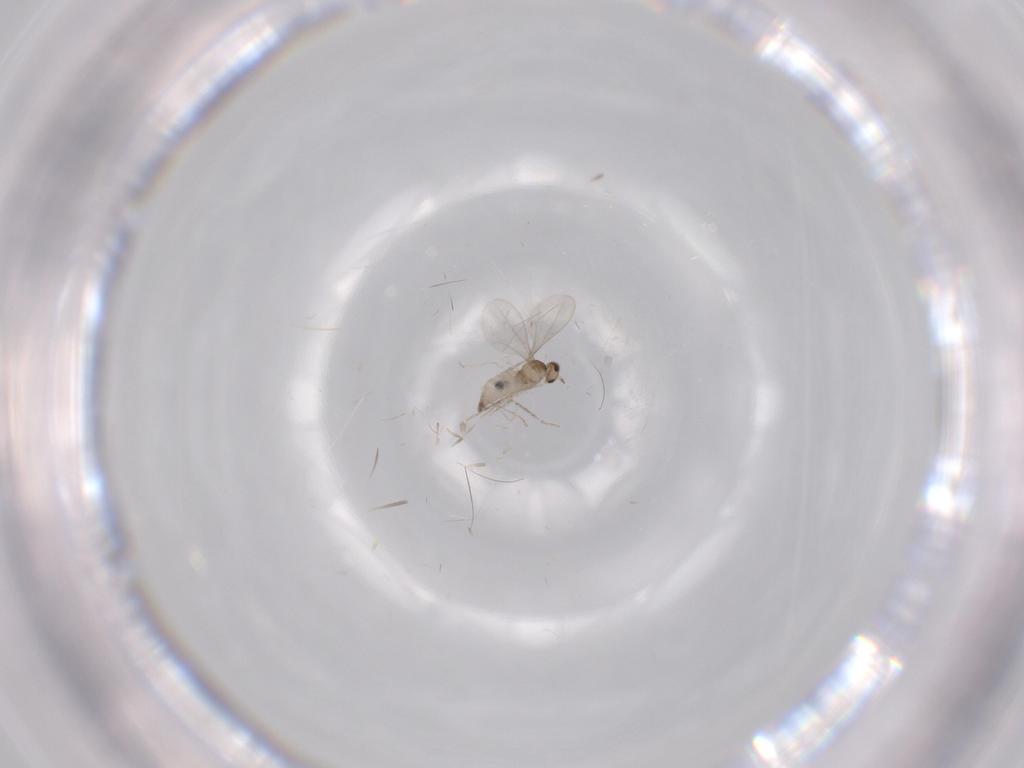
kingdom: Animalia
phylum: Arthropoda
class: Insecta
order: Diptera
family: Cecidomyiidae
